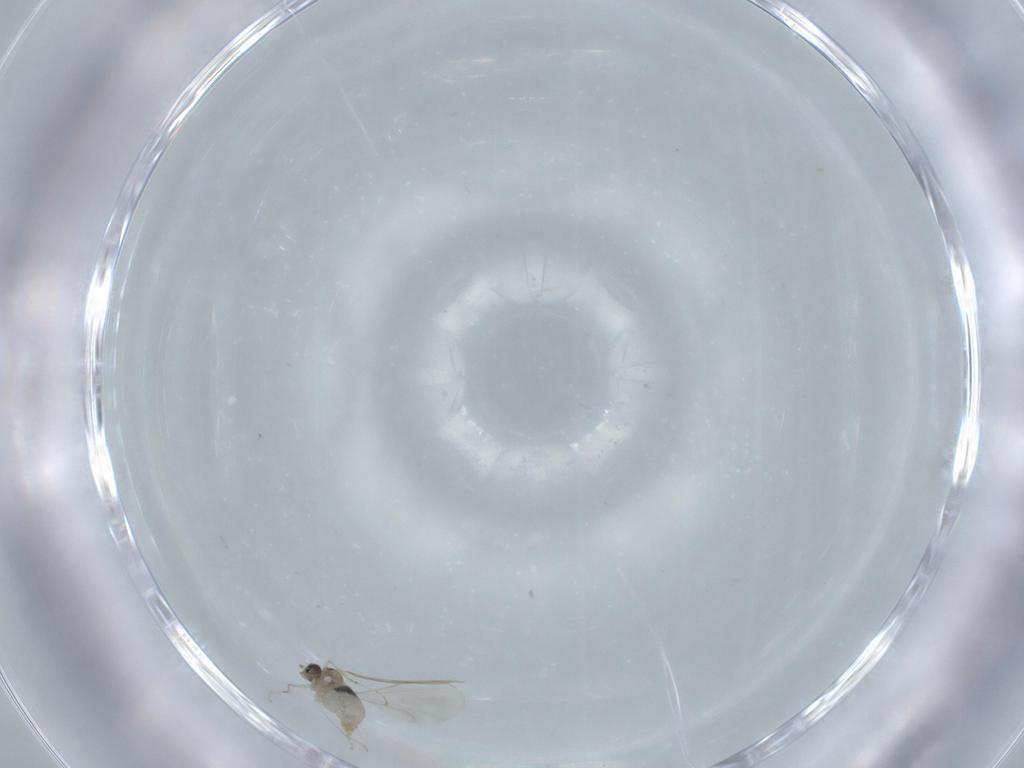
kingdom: Animalia
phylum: Arthropoda
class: Insecta
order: Diptera
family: Cecidomyiidae
